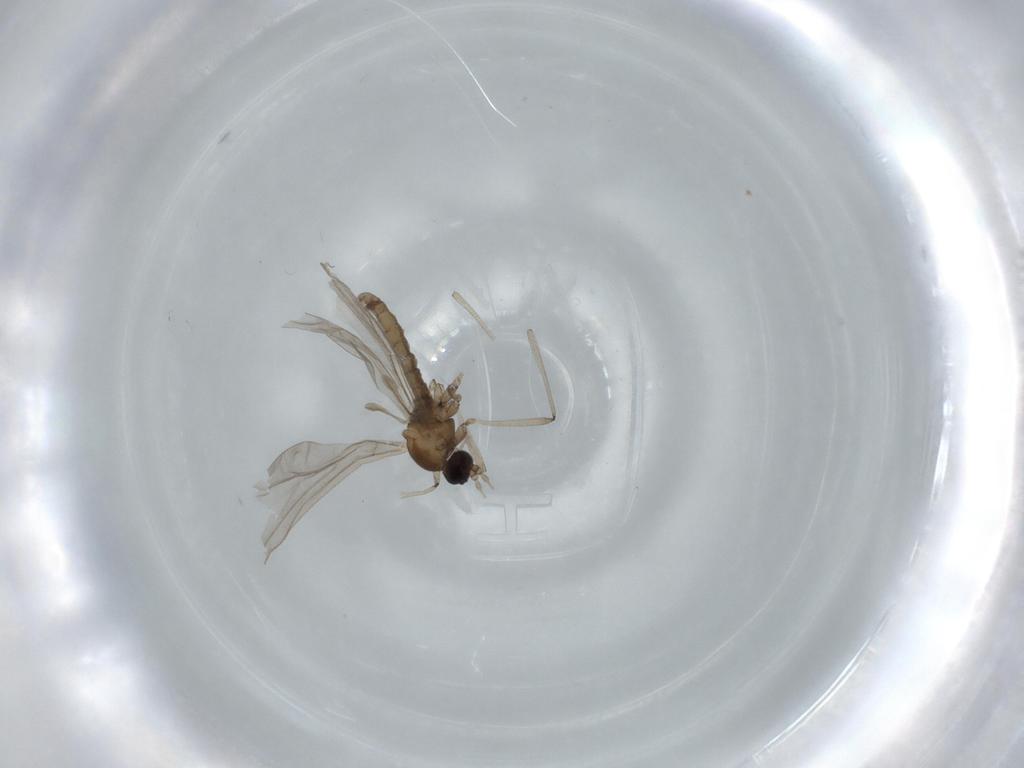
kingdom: Animalia
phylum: Arthropoda
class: Insecta
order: Diptera
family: Cecidomyiidae
